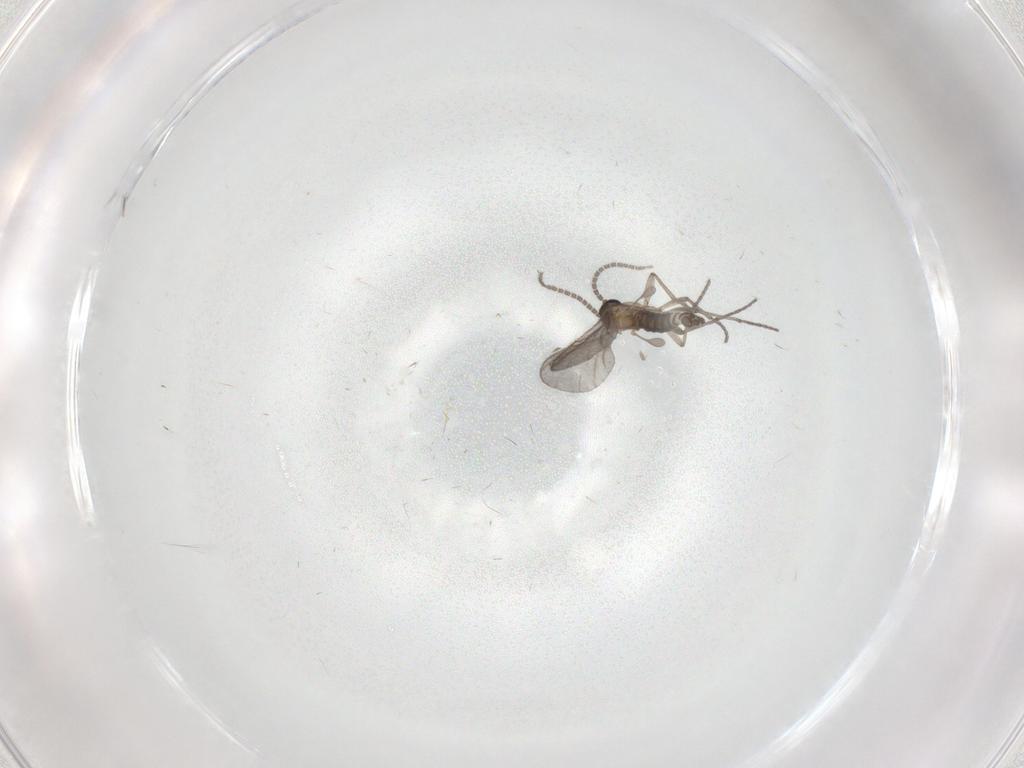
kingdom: Animalia
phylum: Arthropoda
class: Insecta
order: Diptera
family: Sciaridae
